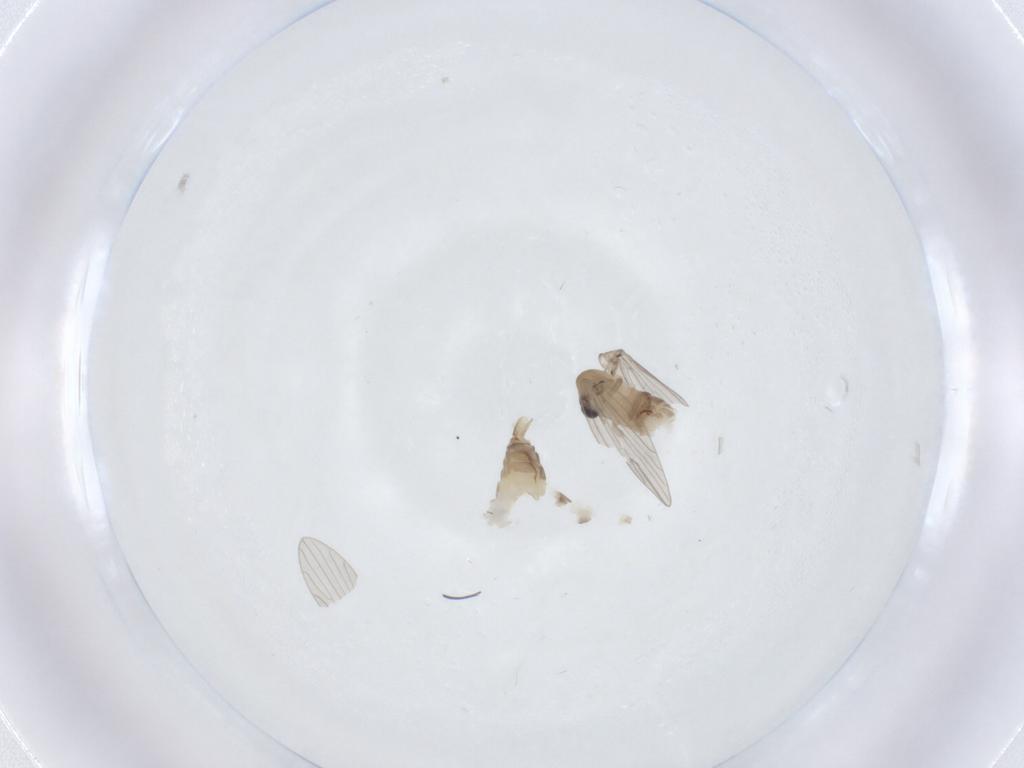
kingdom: Animalia
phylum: Arthropoda
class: Insecta
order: Diptera
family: Psychodidae
